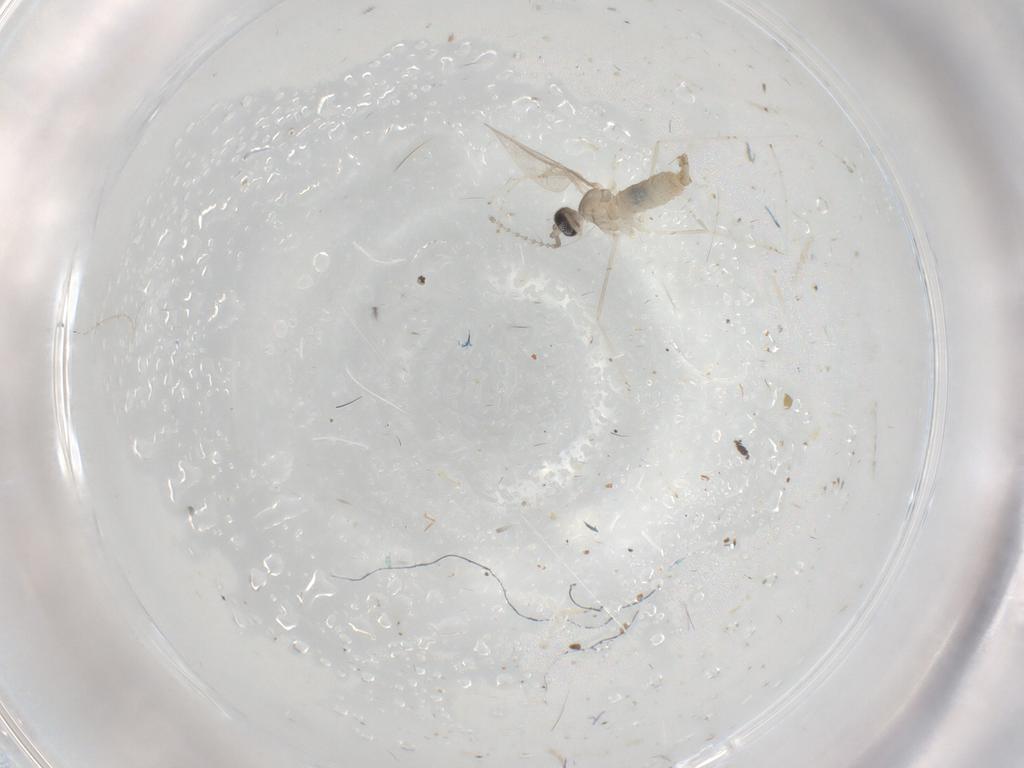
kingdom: Animalia
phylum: Arthropoda
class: Insecta
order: Diptera
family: Cecidomyiidae
